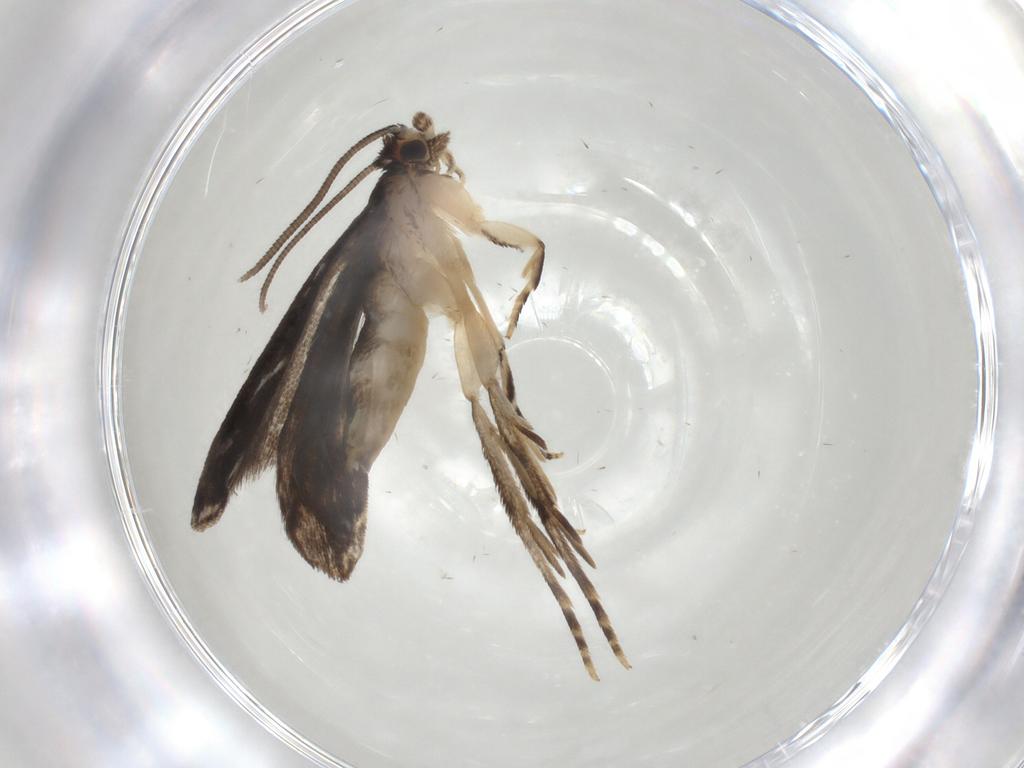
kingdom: Animalia
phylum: Arthropoda
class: Insecta
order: Lepidoptera
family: Dryadaulidae
